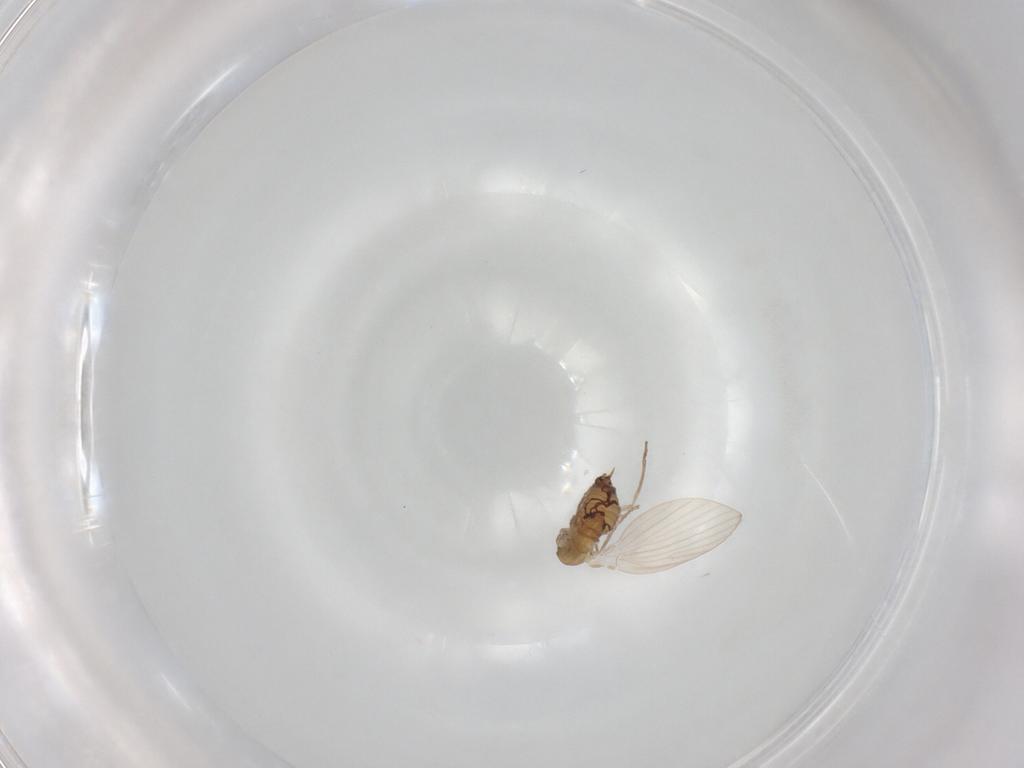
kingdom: Animalia
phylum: Arthropoda
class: Insecta
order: Diptera
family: Psychodidae
